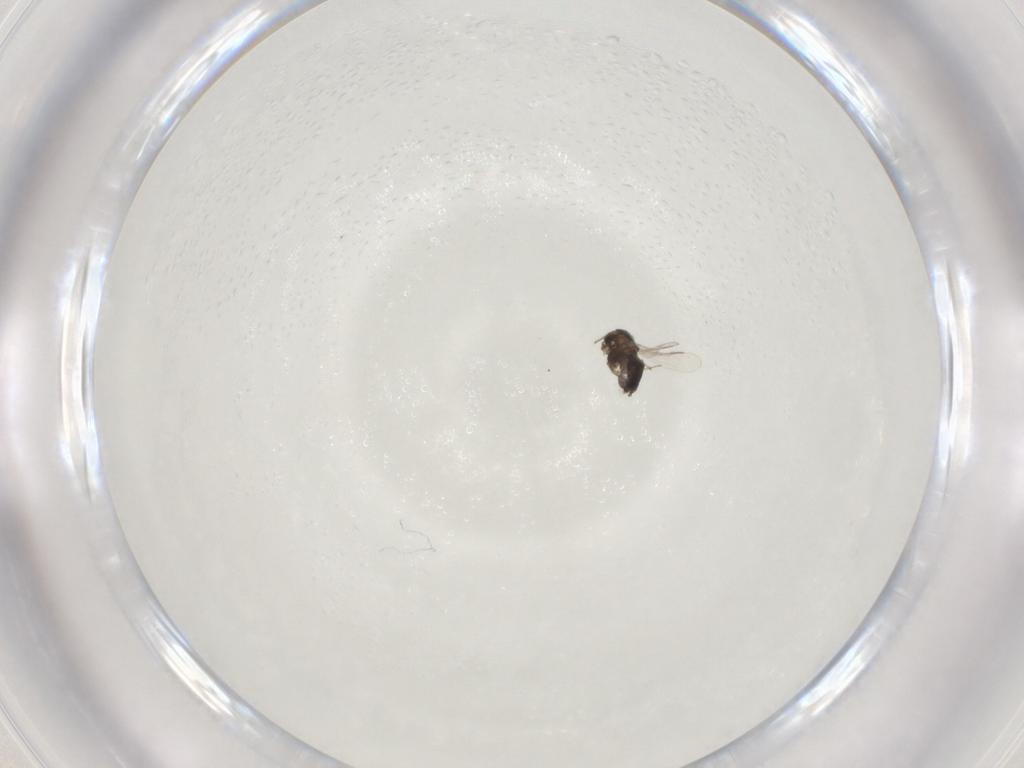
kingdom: Animalia
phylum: Arthropoda
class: Insecta
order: Diptera
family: Chironomidae
